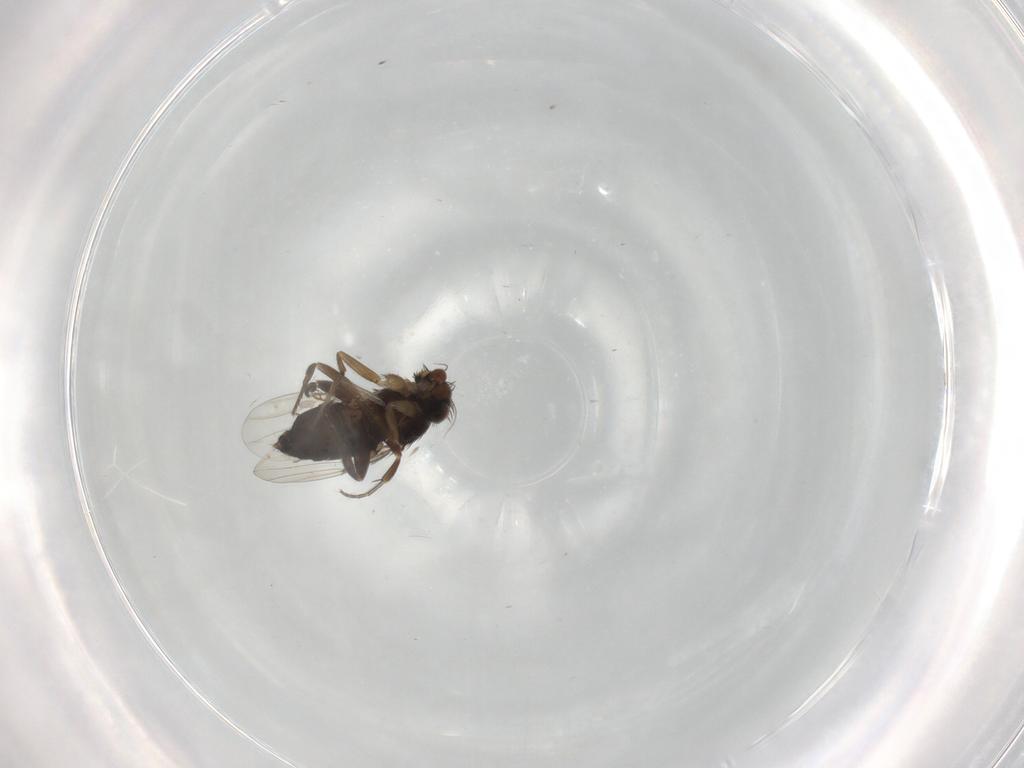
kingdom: Animalia
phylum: Arthropoda
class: Insecta
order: Diptera
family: Phoridae
